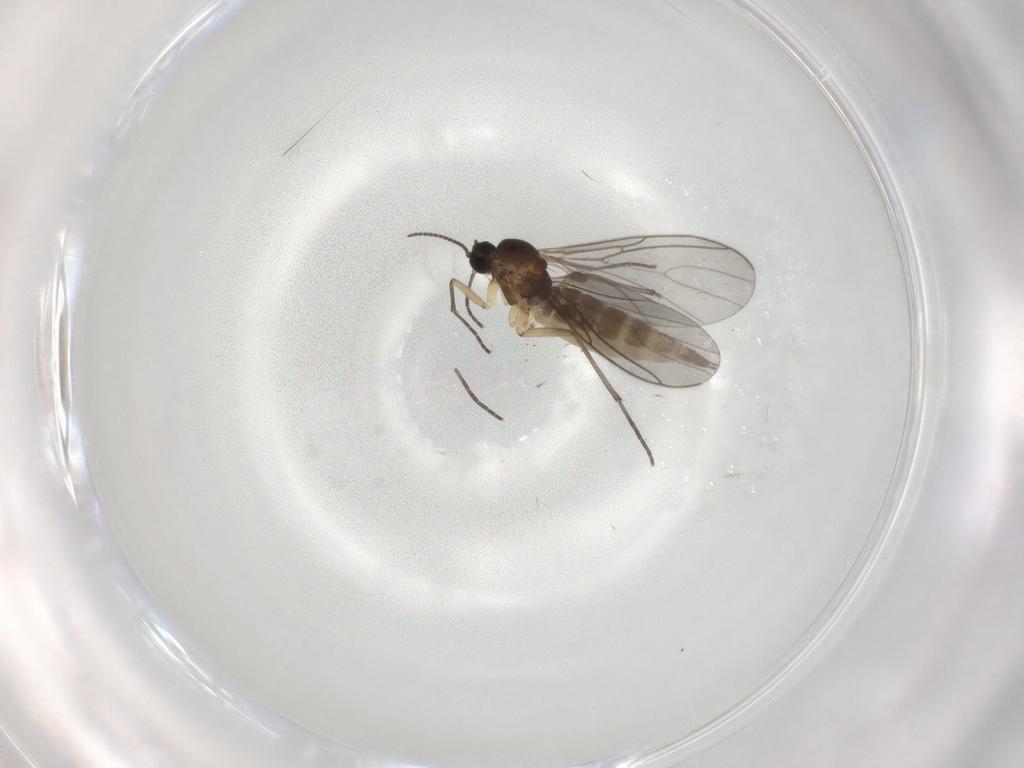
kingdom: Animalia
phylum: Arthropoda
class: Insecta
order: Diptera
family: Sciaridae
